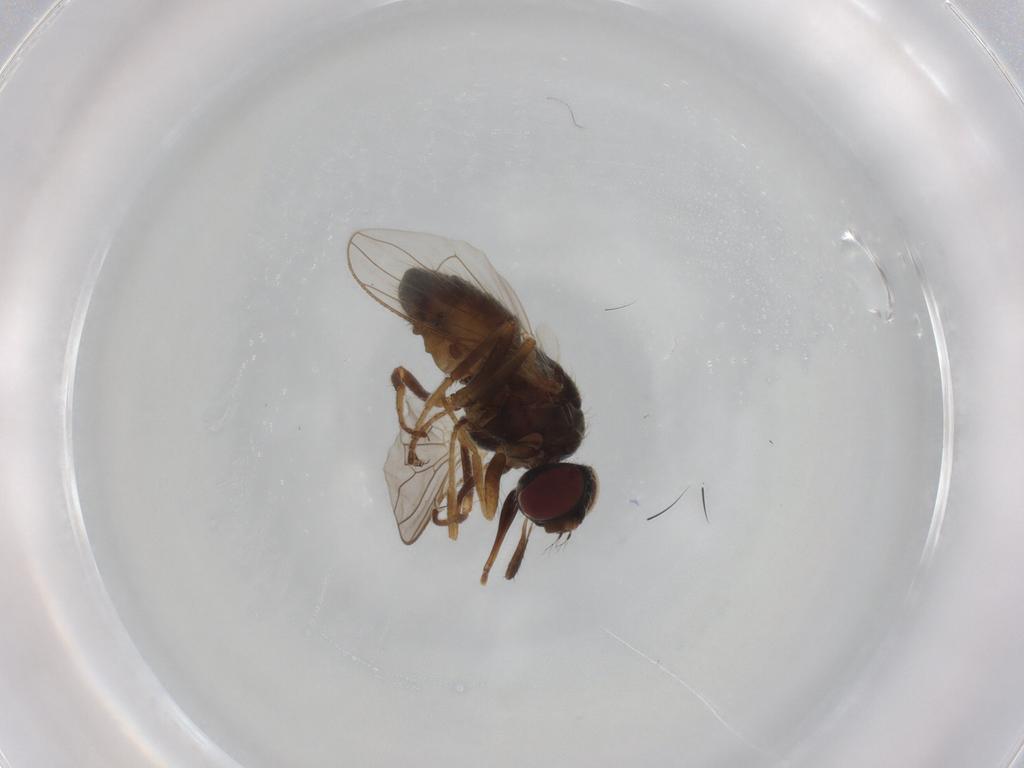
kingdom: Animalia
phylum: Arthropoda
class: Insecta
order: Diptera
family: Muscidae
